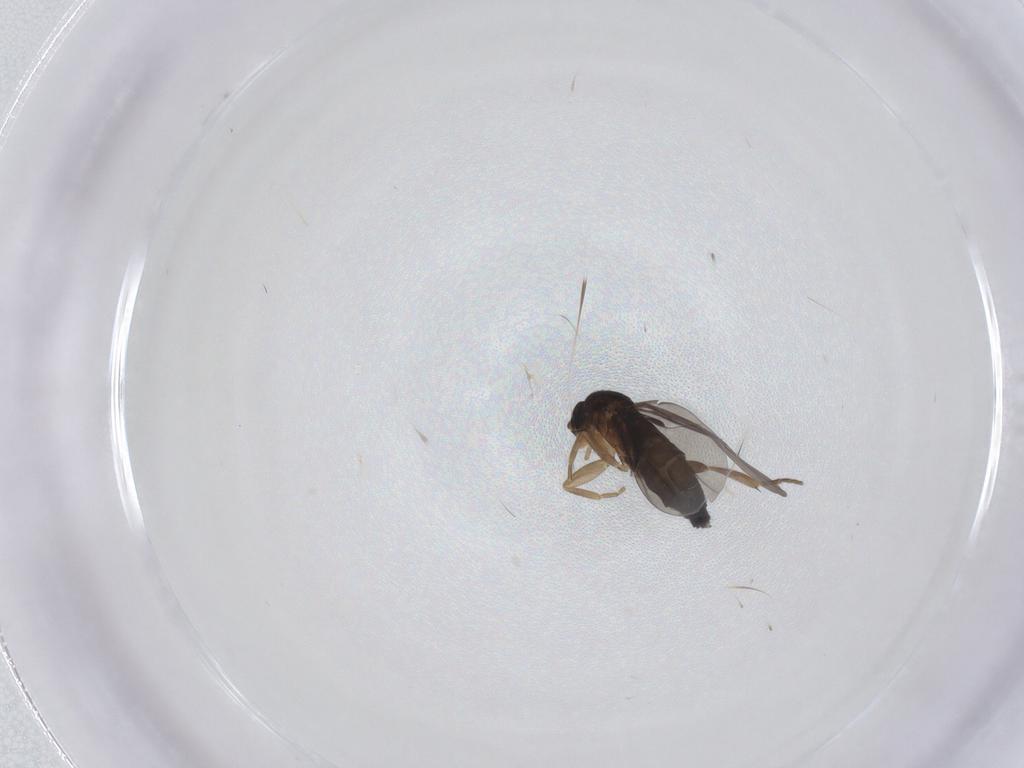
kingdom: Animalia
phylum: Arthropoda
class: Insecta
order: Diptera
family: Phoridae
